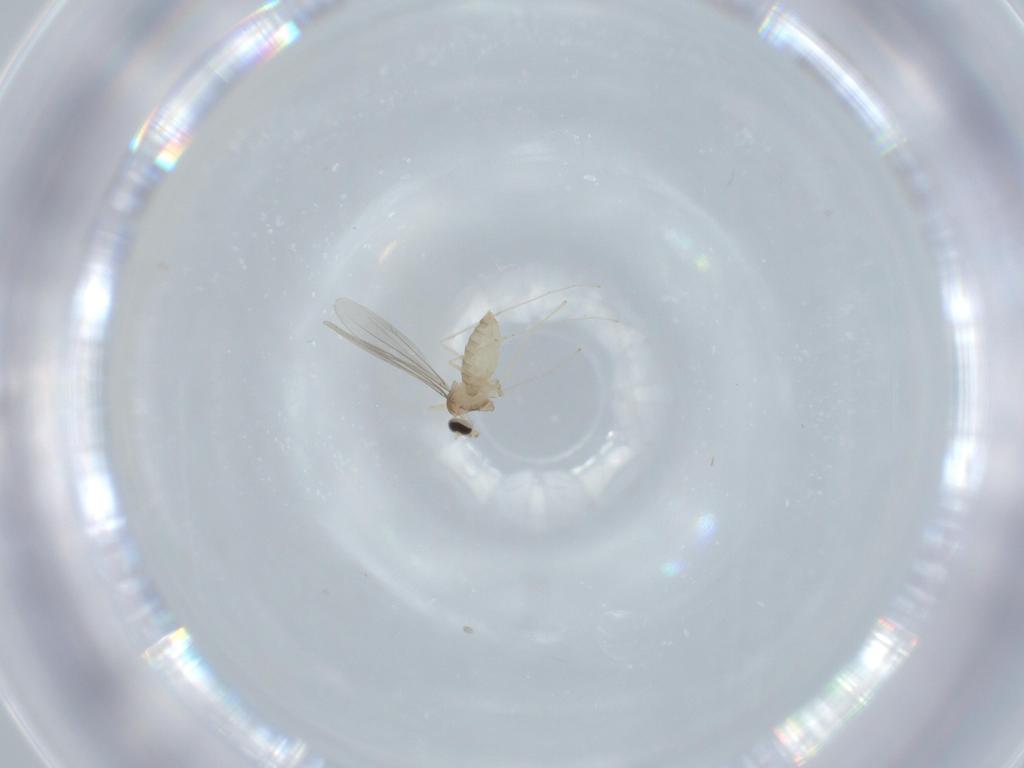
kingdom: Animalia
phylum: Arthropoda
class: Insecta
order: Diptera
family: Cecidomyiidae
